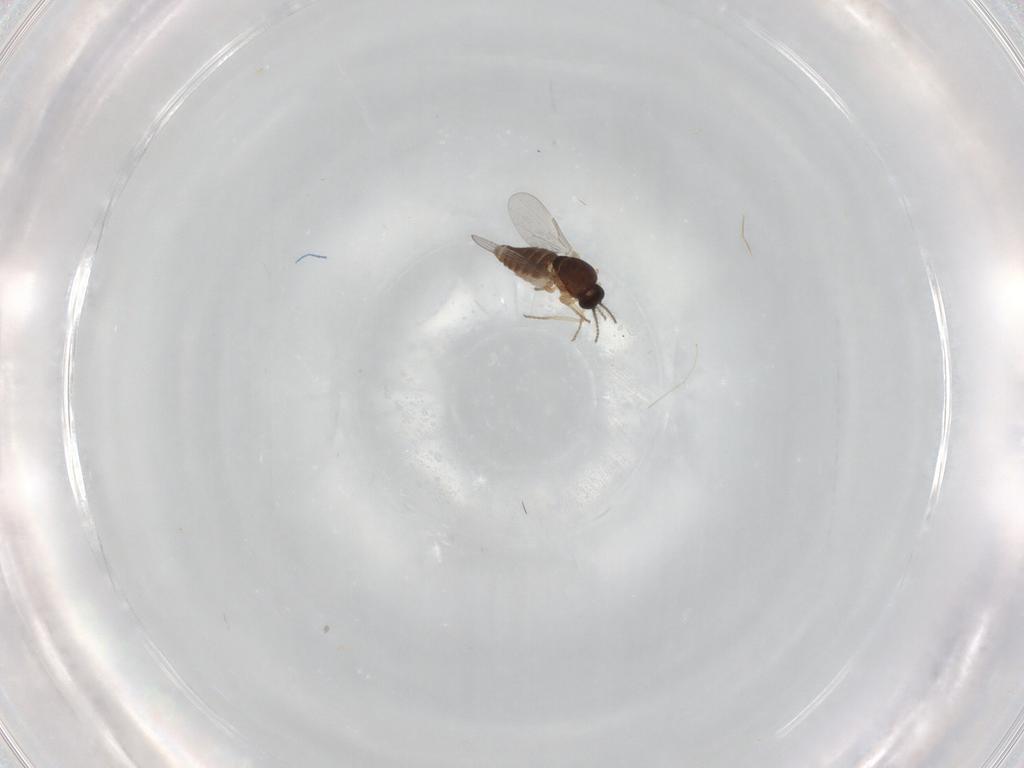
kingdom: Animalia
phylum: Arthropoda
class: Insecta
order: Diptera
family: Ceratopogonidae
